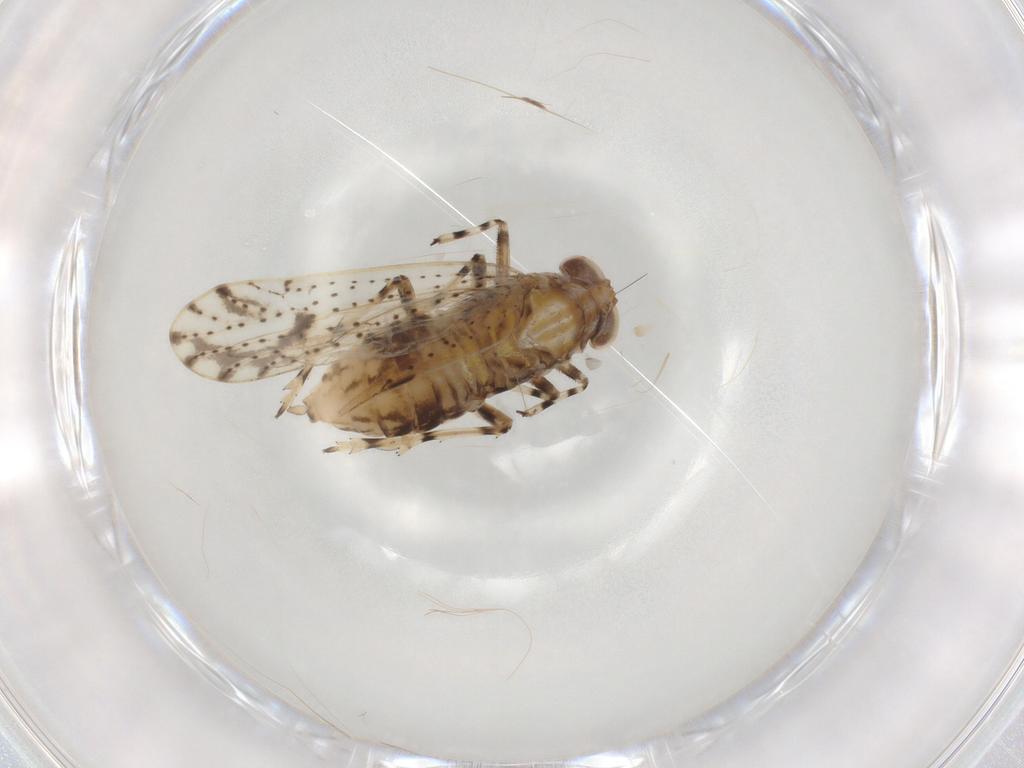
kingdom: Animalia
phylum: Arthropoda
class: Insecta
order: Hemiptera
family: Delphacidae
